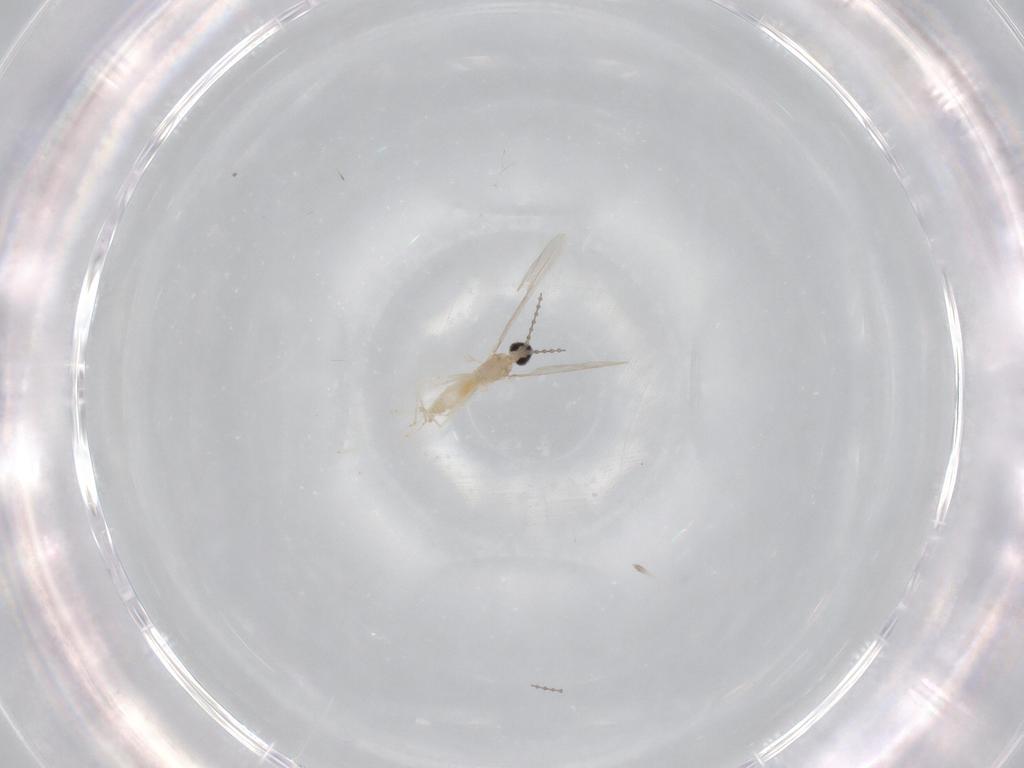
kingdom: Animalia
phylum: Arthropoda
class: Insecta
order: Diptera
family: Cecidomyiidae
